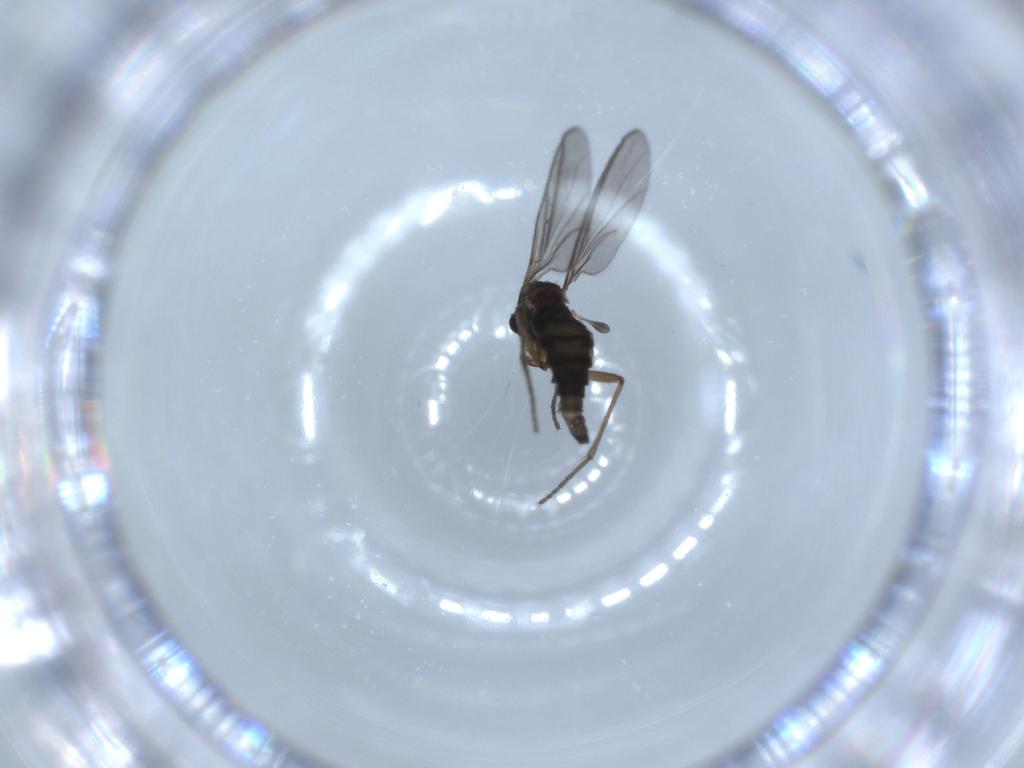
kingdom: Animalia
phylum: Arthropoda
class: Insecta
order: Diptera
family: Sciaridae
